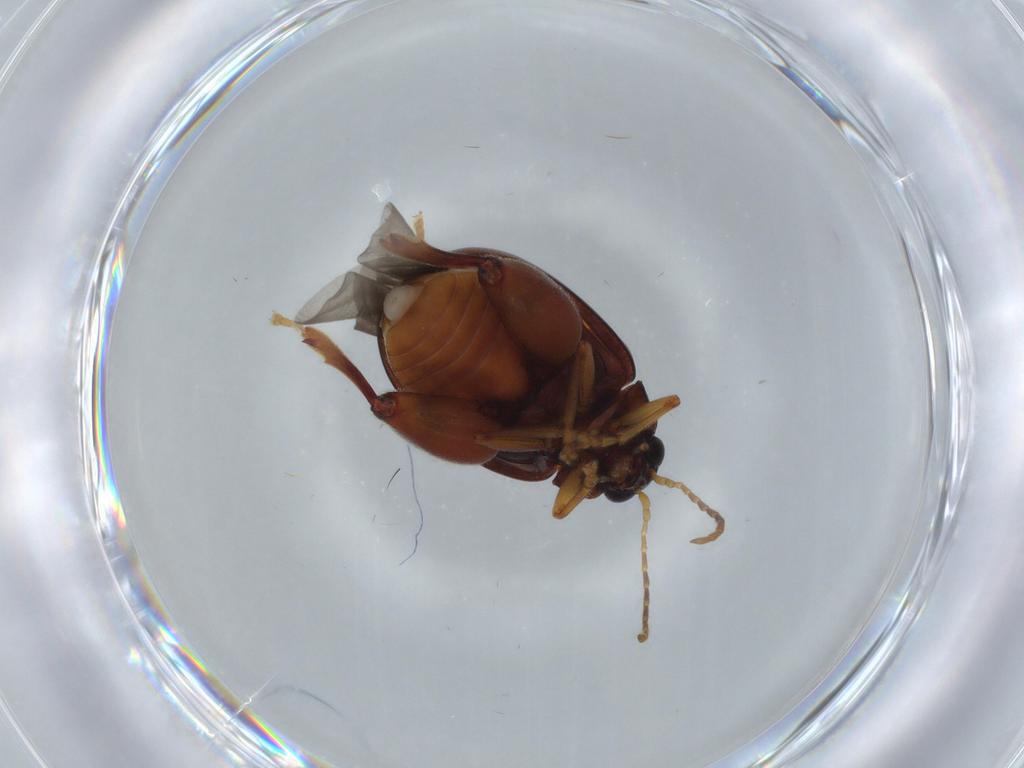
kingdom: Animalia
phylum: Arthropoda
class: Insecta
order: Coleoptera
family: Chrysomelidae
